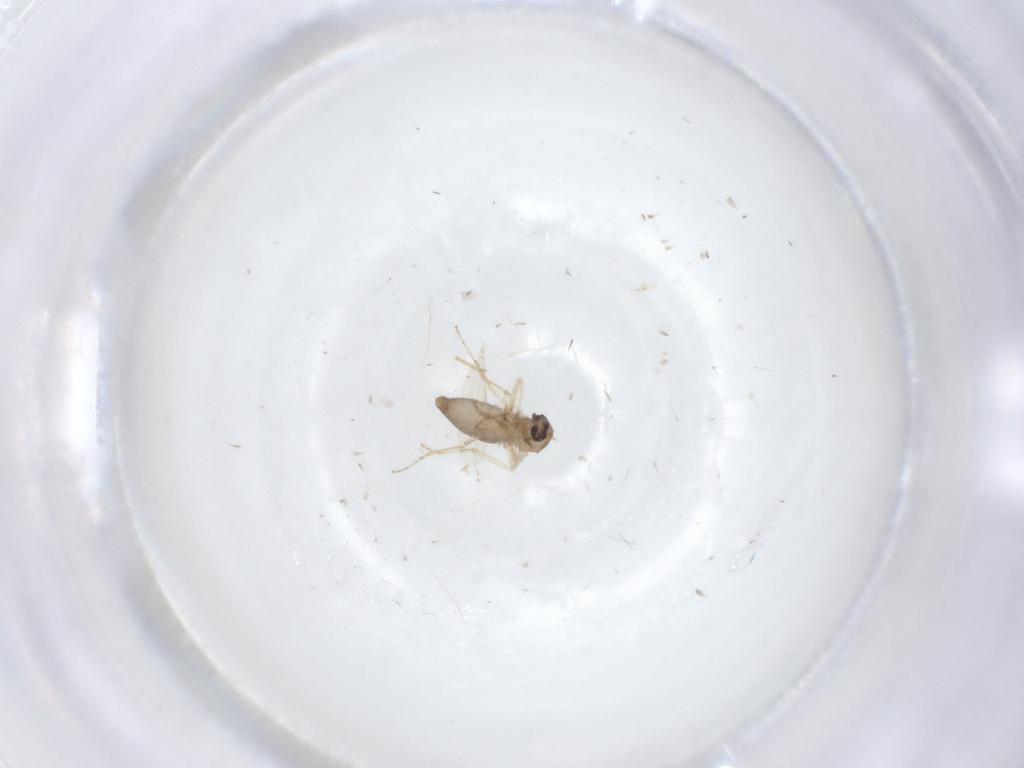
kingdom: Animalia
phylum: Arthropoda
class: Insecta
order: Diptera
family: Ceratopogonidae
